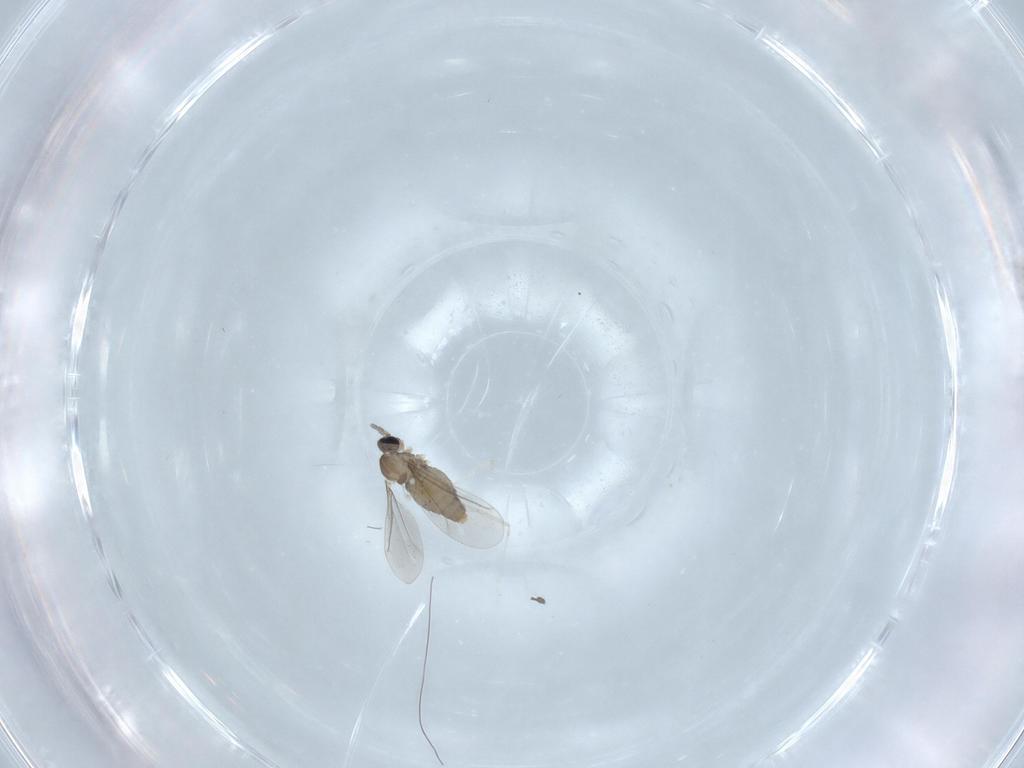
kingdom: Animalia
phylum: Arthropoda
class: Insecta
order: Diptera
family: Cecidomyiidae
